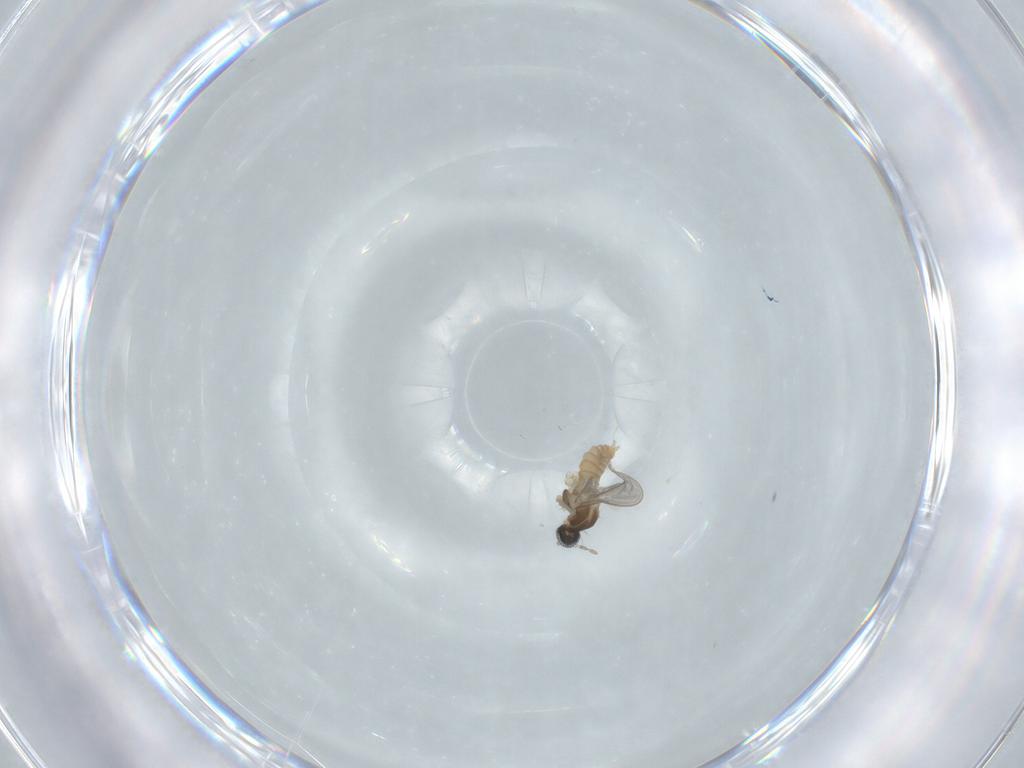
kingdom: Animalia
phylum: Arthropoda
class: Insecta
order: Diptera
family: Cecidomyiidae
